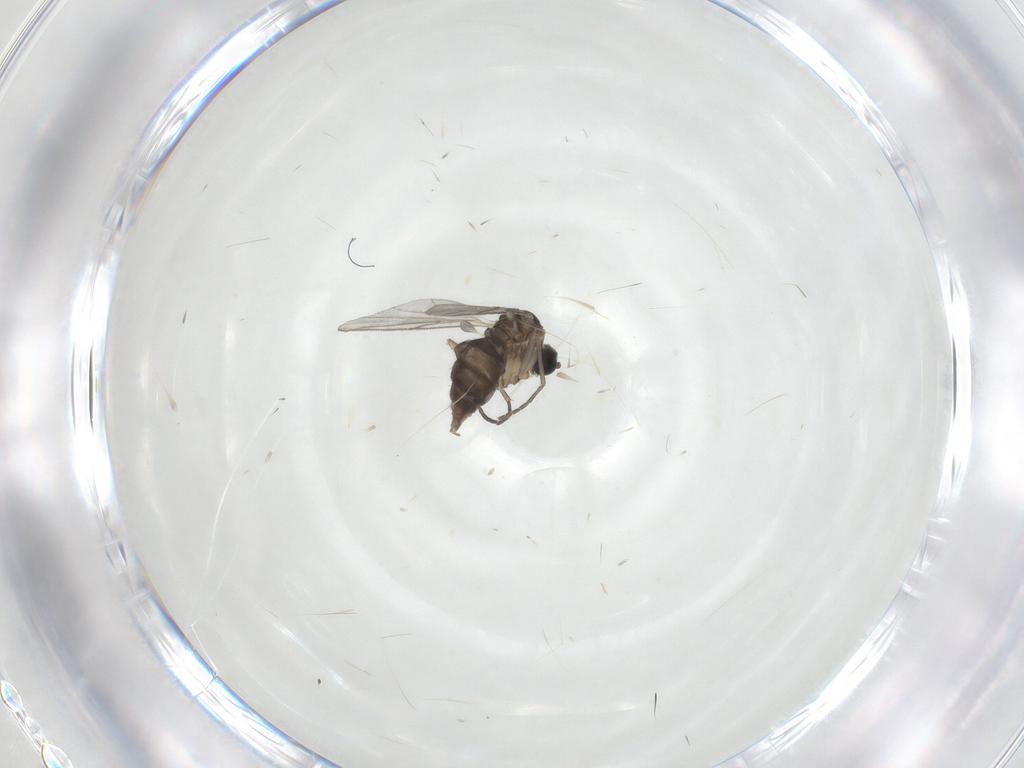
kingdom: Animalia
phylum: Arthropoda
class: Insecta
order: Diptera
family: Sciaridae
